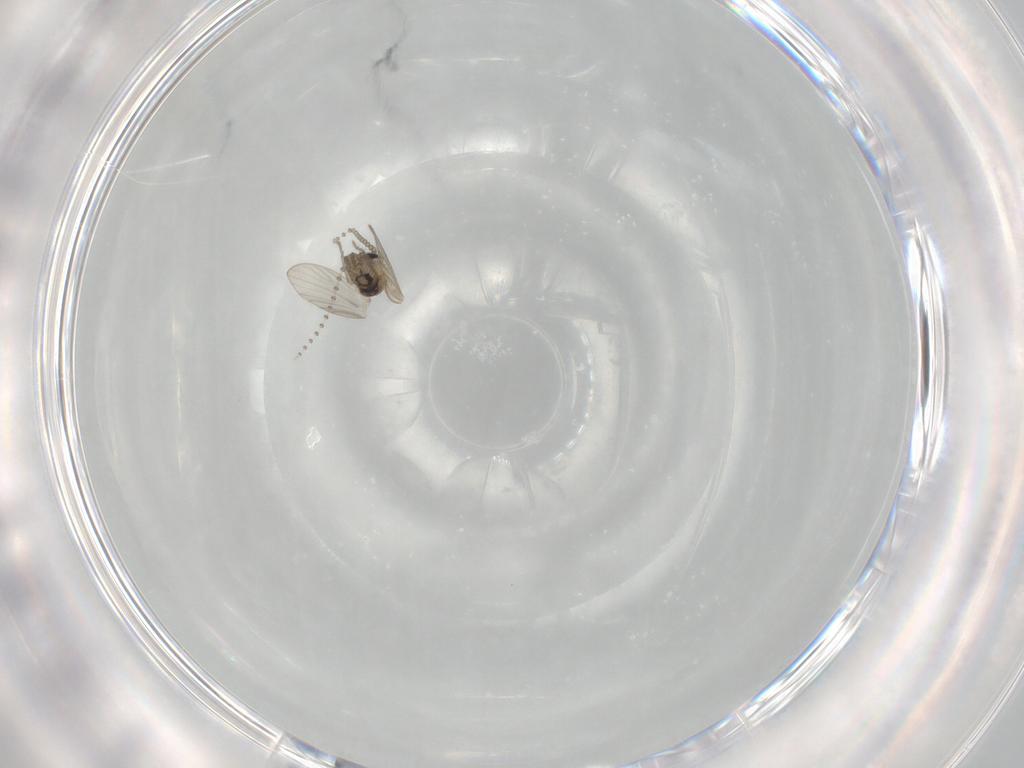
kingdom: Animalia
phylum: Arthropoda
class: Insecta
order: Diptera
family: Psychodidae
